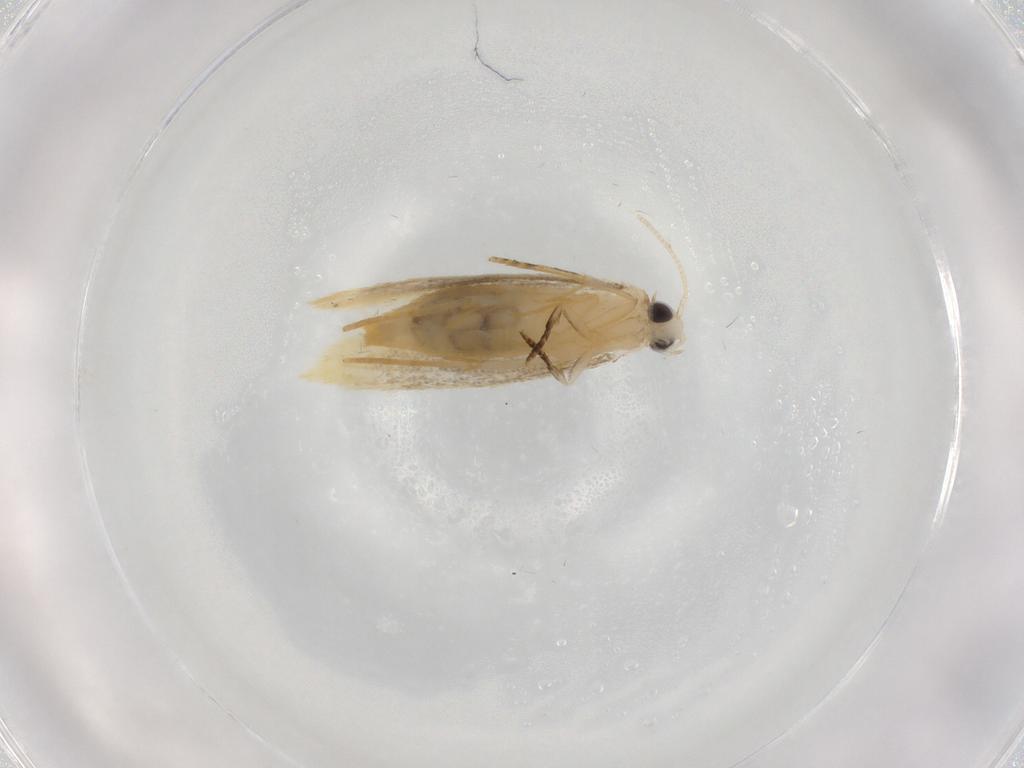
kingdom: Animalia
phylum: Arthropoda
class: Insecta
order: Lepidoptera
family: Tineidae
